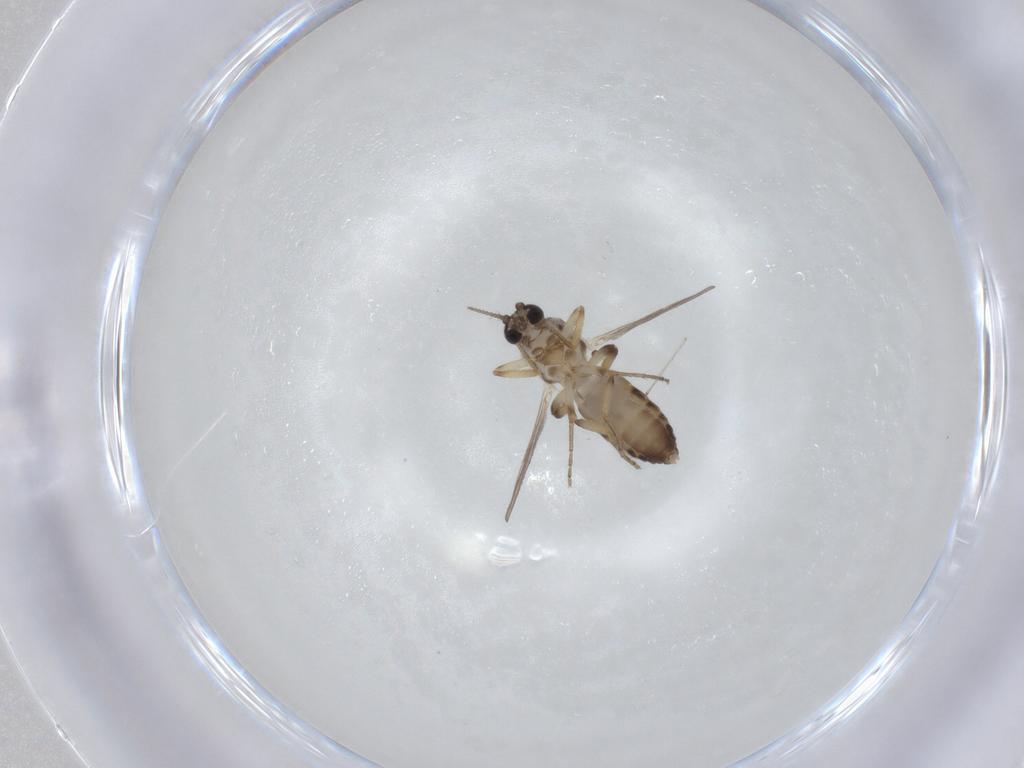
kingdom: Animalia
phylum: Arthropoda
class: Insecta
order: Diptera
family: Ceratopogonidae
